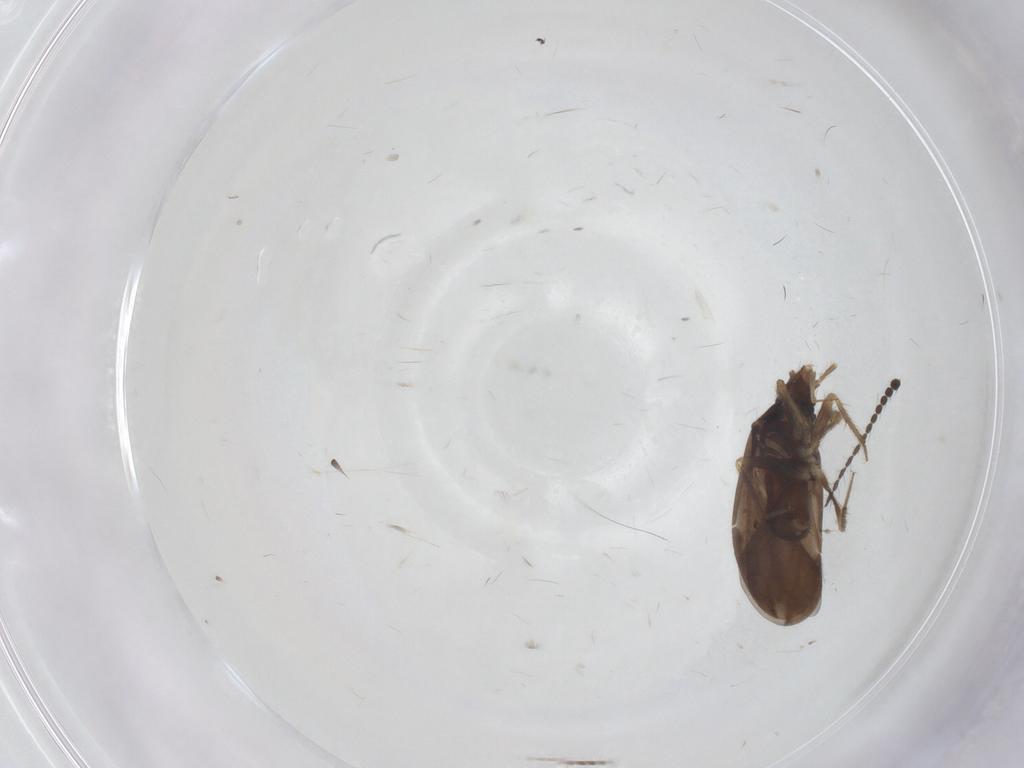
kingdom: Animalia
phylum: Arthropoda
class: Insecta
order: Hemiptera
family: Ceratocombidae
